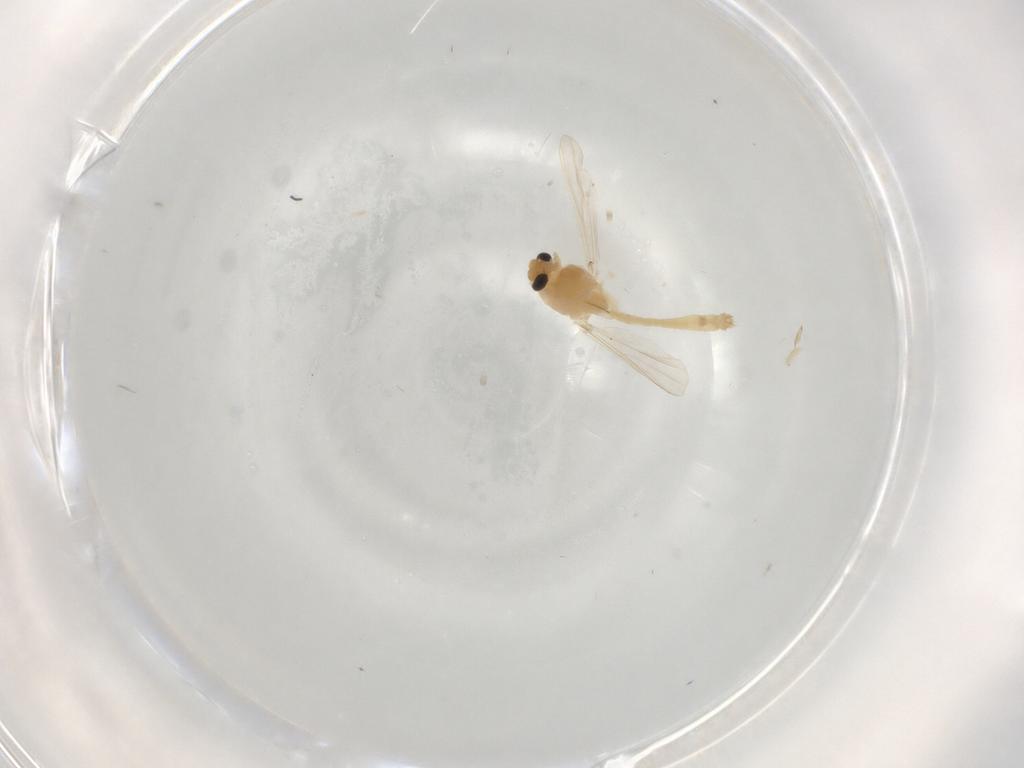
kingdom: Animalia
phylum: Arthropoda
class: Insecta
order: Diptera
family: Chironomidae
